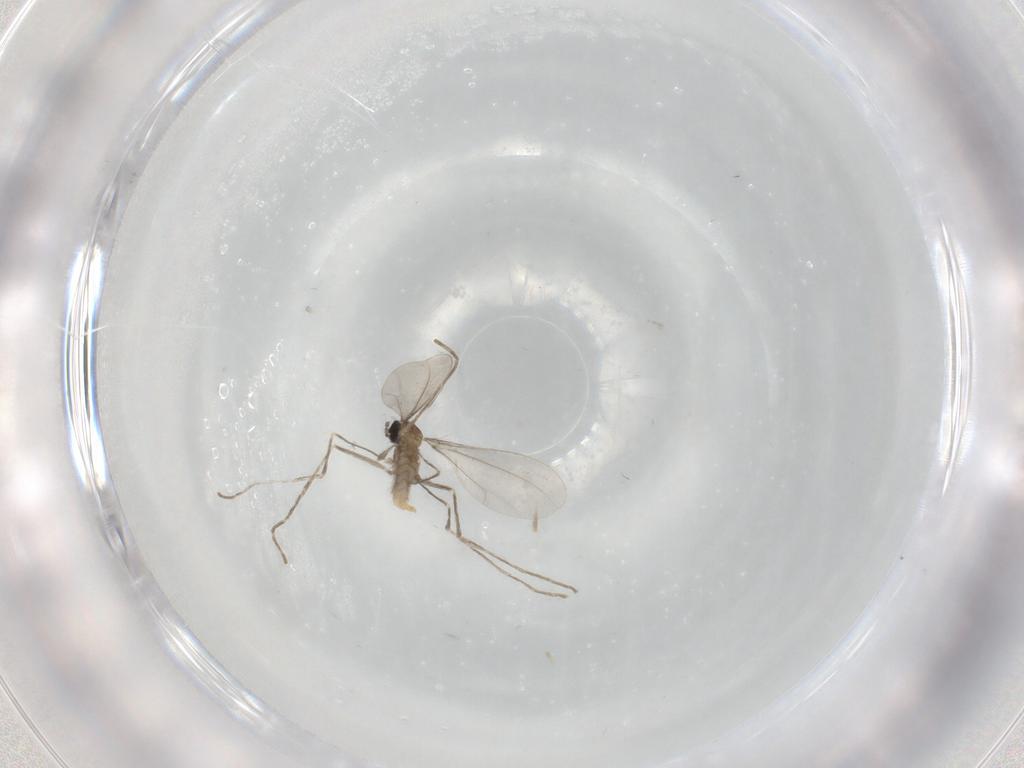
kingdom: Animalia
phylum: Arthropoda
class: Insecta
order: Diptera
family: Cecidomyiidae
